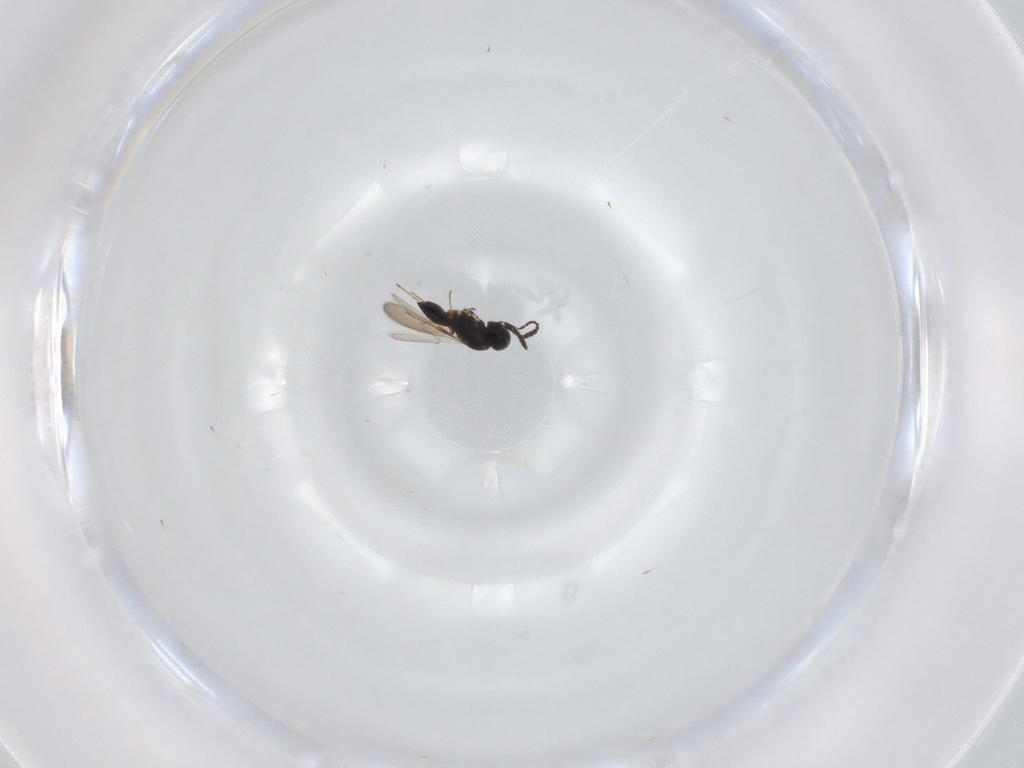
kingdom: Animalia
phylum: Arthropoda
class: Insecta
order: Hymenoptera
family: Scelionidae
